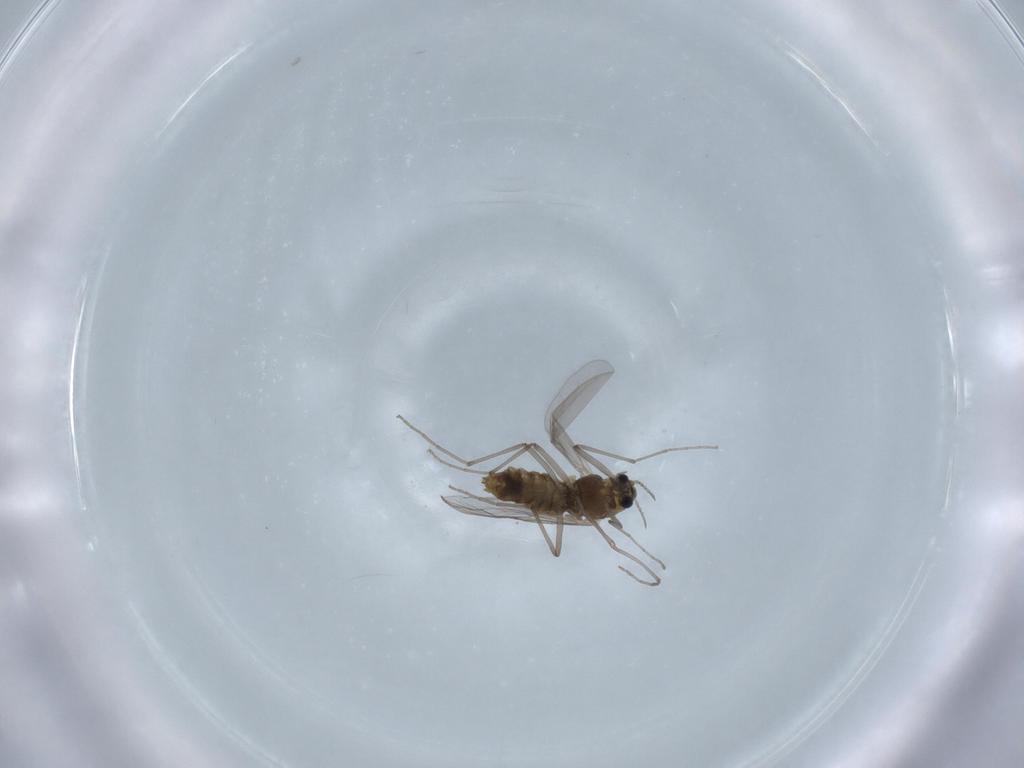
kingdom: Animalia
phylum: Arthropoda
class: Insecta
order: Diptera
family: Chironomidae
